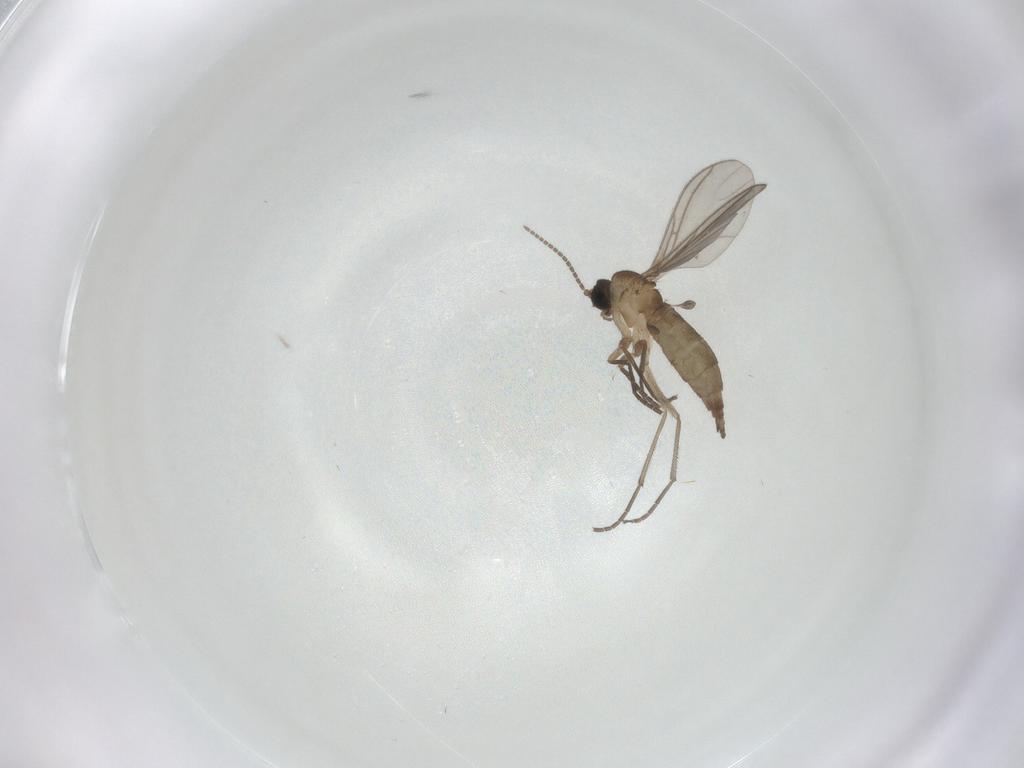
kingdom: Animalia
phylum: Arthropoda
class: Insecta
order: Diptera
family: Sciaridae
